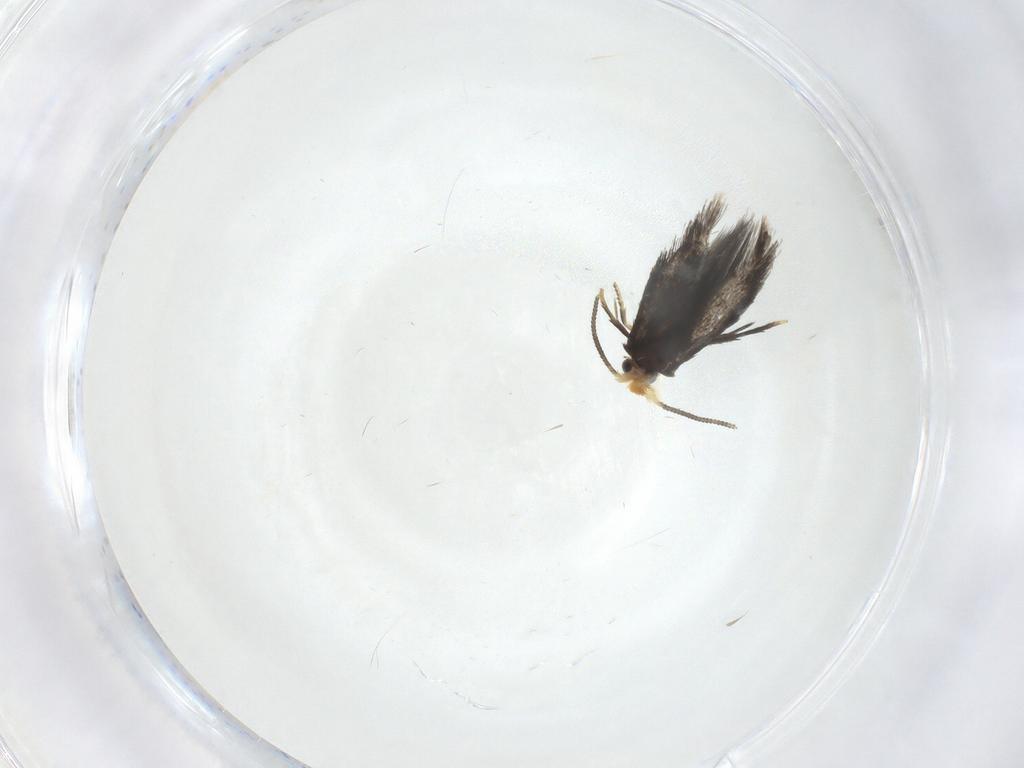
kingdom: Animalia
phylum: Arthropoda
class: Insecta
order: Lepidoptera
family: Nepticulidae
